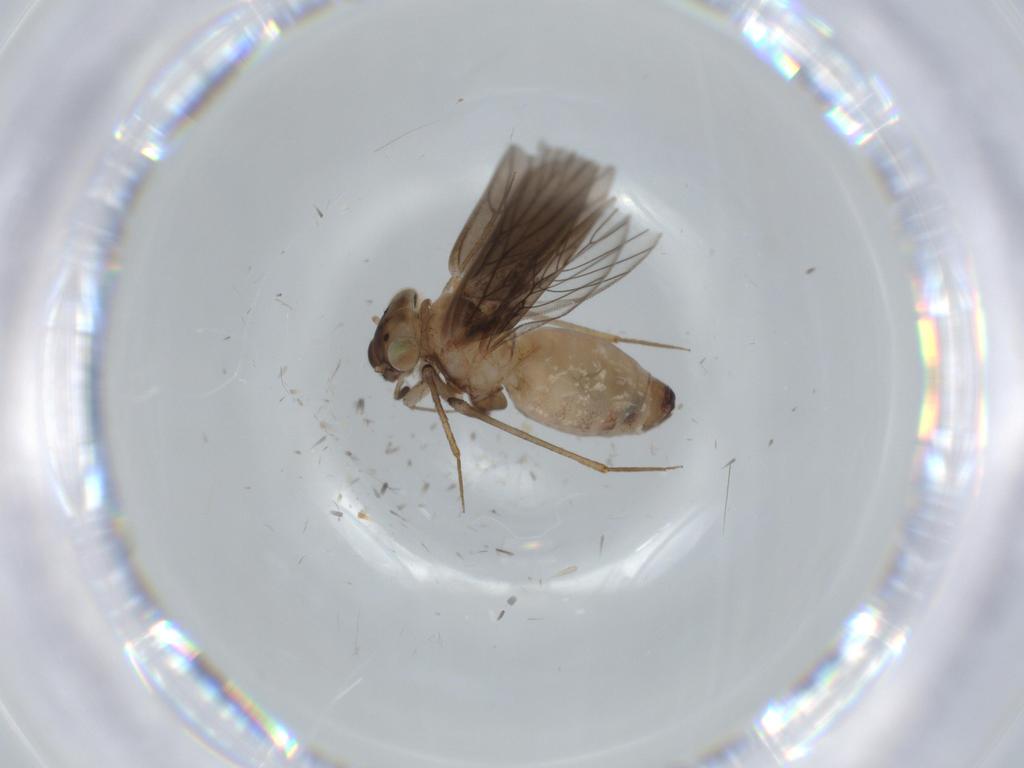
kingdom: Animalia
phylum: Arthropoda
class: Insecta
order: Psocodea
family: Lepidopsocidae
